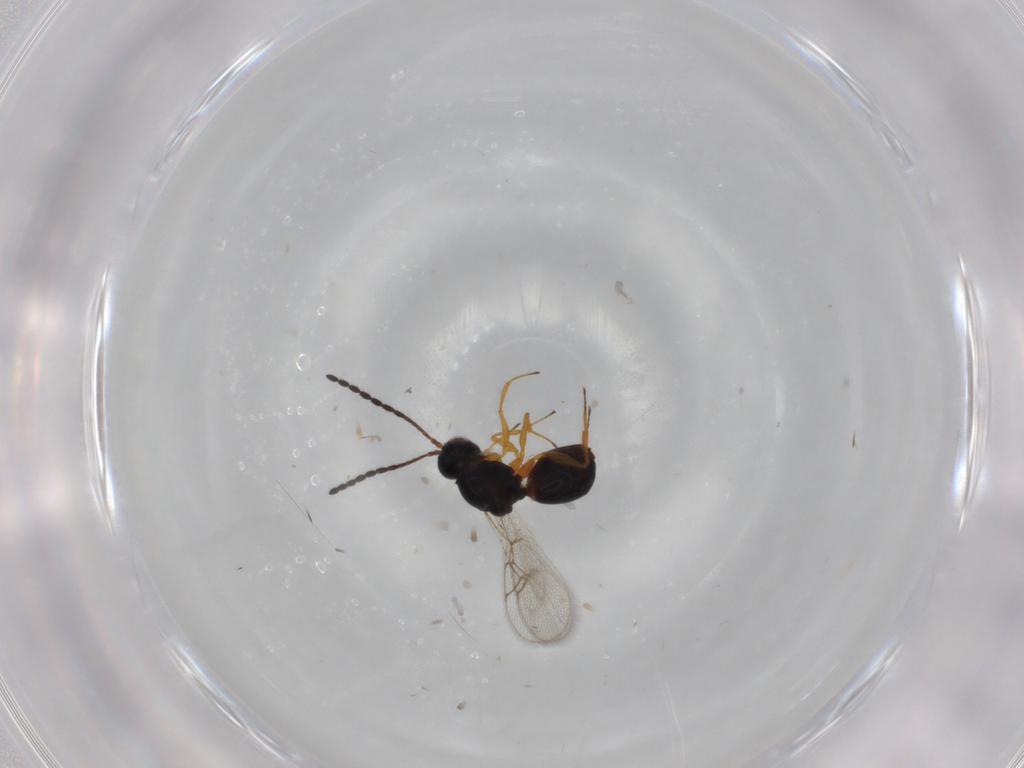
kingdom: Animalia
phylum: Arthropoda
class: Insecta
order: Hymenoptera
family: Figitidae
